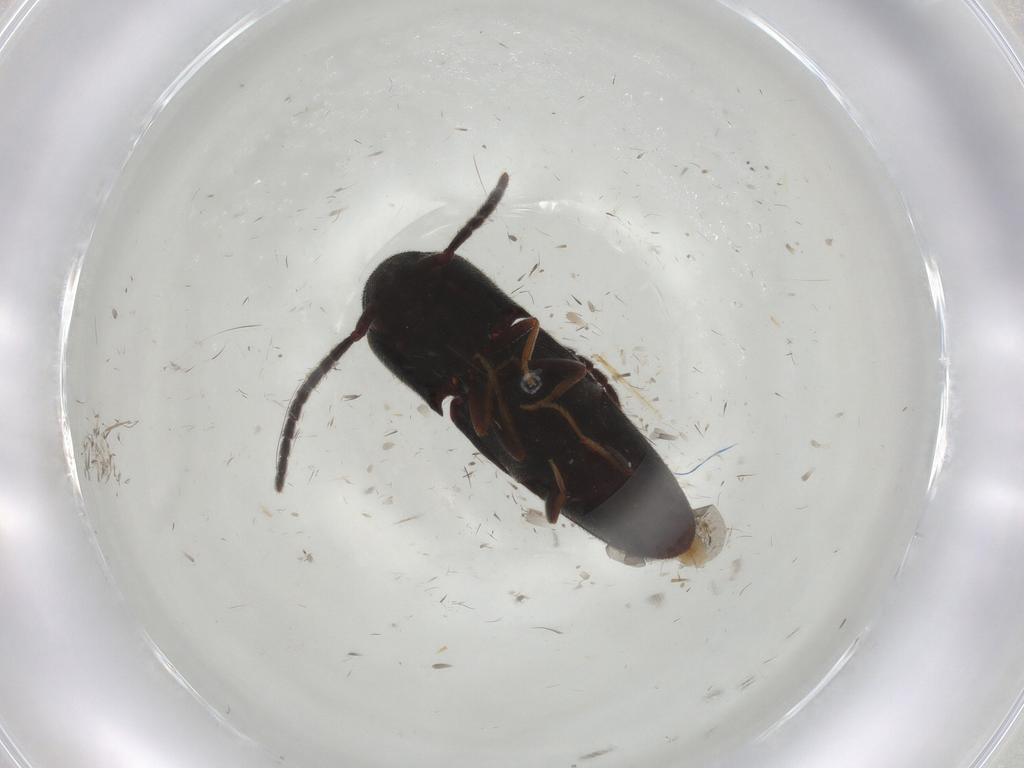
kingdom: Animalia
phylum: Arthropoda
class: Insecta
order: Coleoptera
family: Eucnemidae
